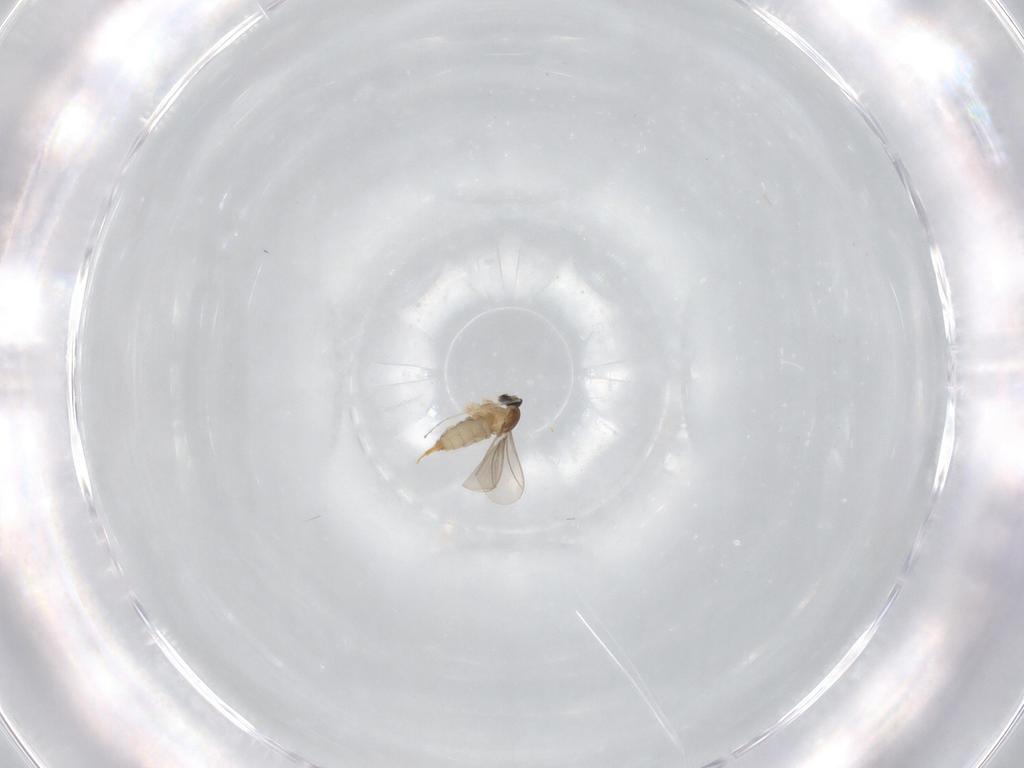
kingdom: Animalia
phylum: Arthropoda
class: Insecta
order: Diptera
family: Cecidomyiidae
